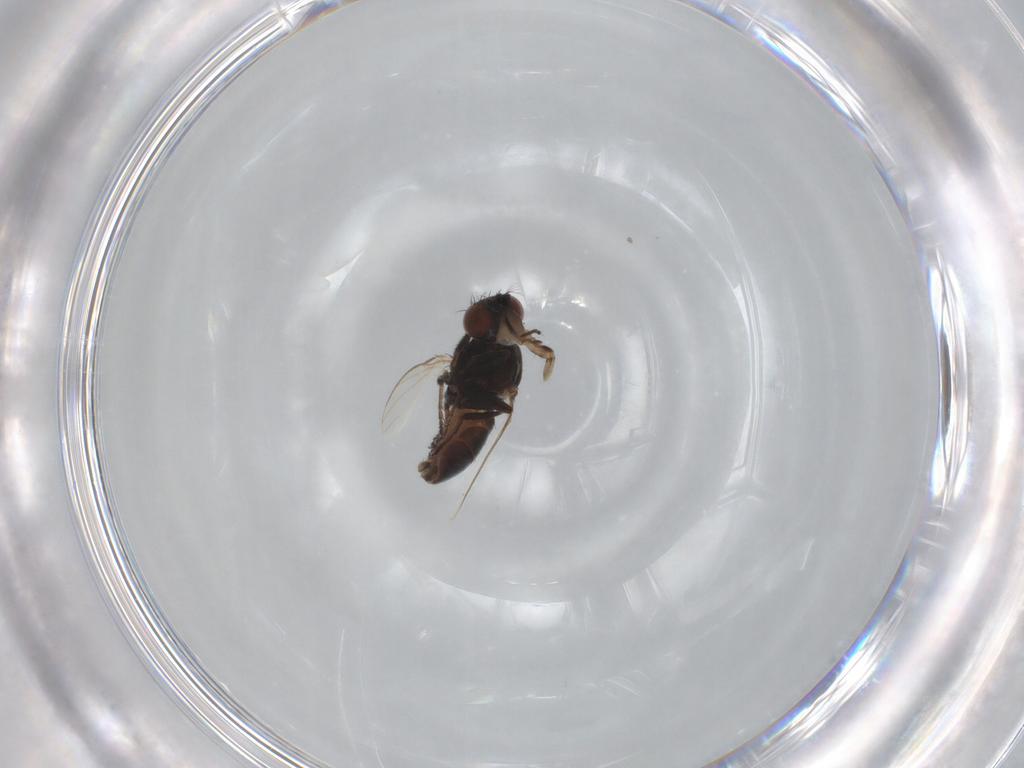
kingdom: Animalia
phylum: Arthropoda
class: Insecta
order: Diptera
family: Ephydridae
